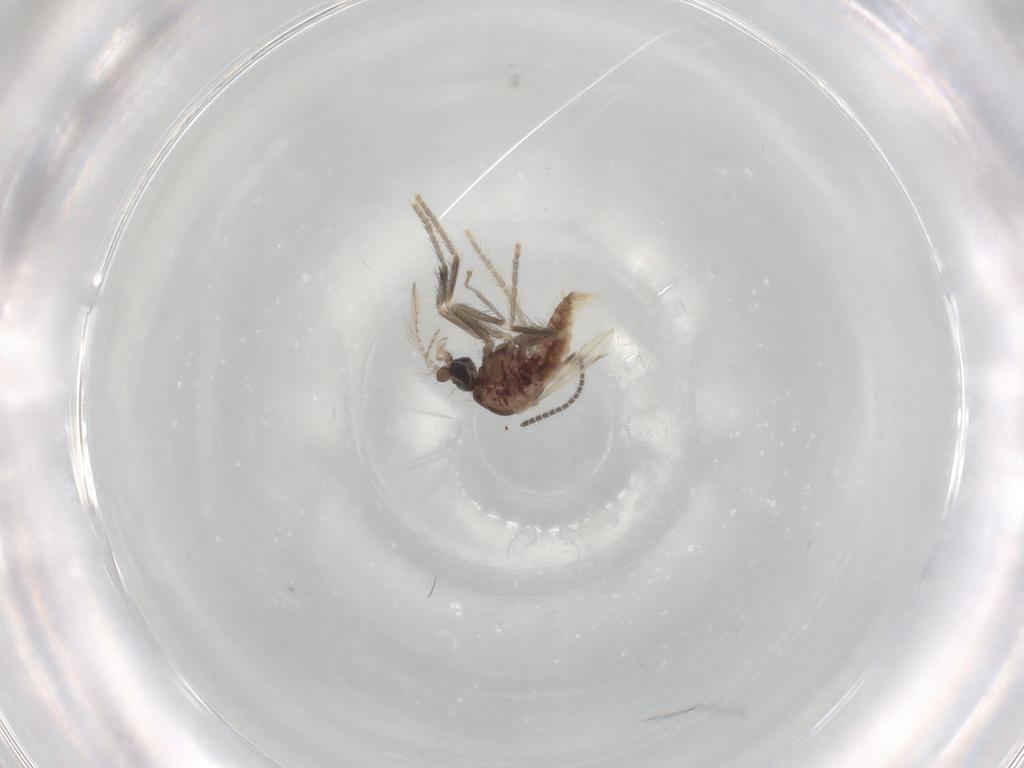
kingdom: Animalia
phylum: Arthropoda
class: Insecta
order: Diptera
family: Corethrellidae
